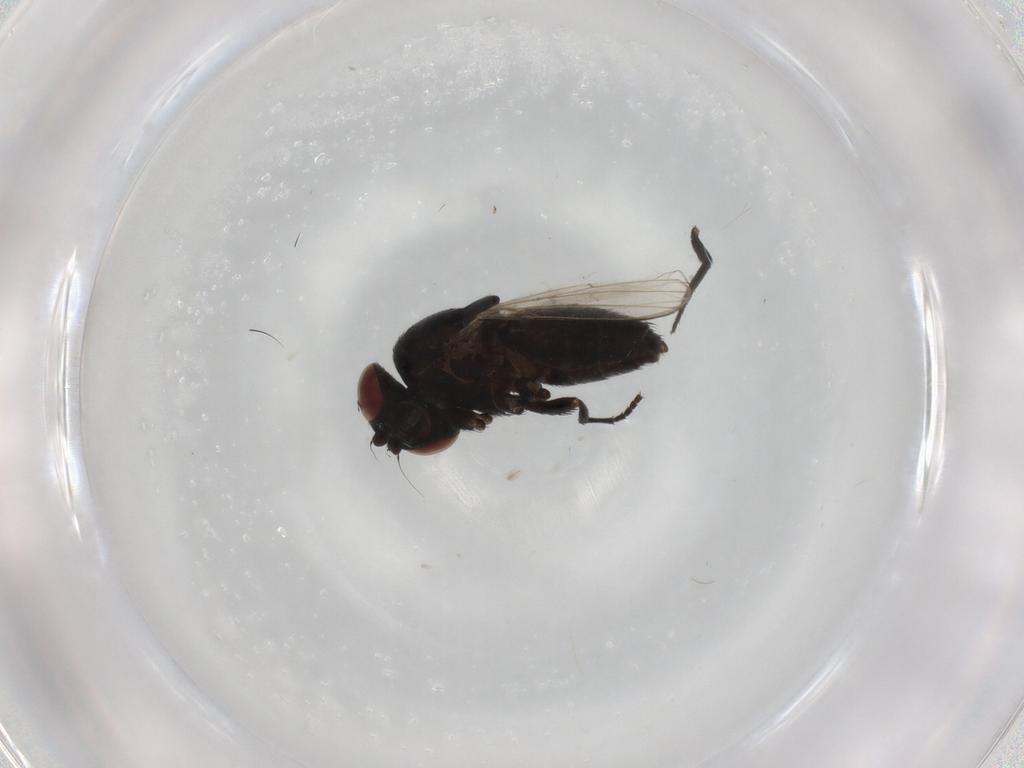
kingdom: Animalia
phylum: Arthropoda
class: Insecta
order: Diptera
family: Milichiidae
